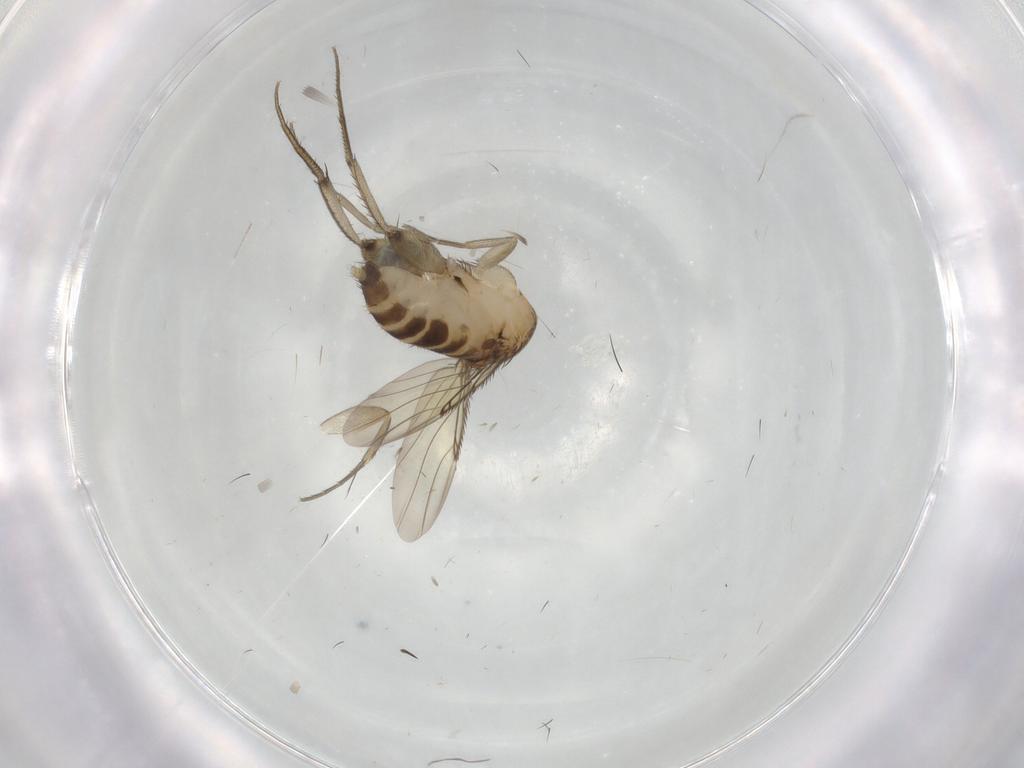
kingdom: Animalia
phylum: Arthropoda
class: Insecta
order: Diptera
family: Phoridae
